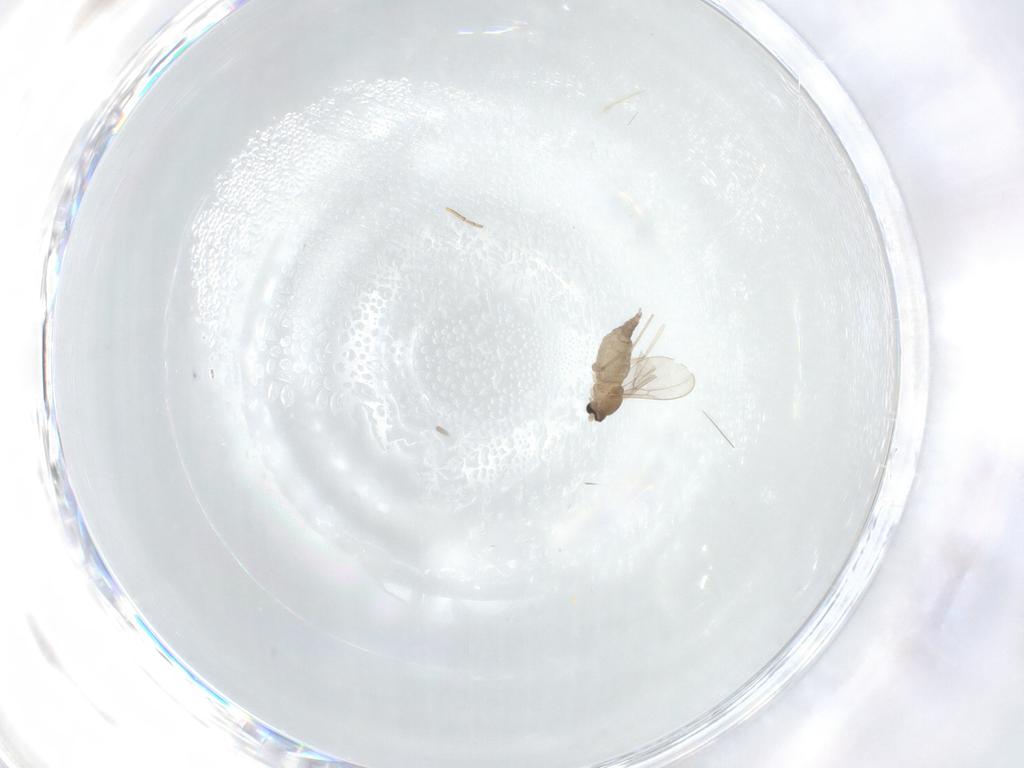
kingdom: Animalia
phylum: Arthropoda
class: Insecta
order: Diptera
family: Cecidomyiidae
